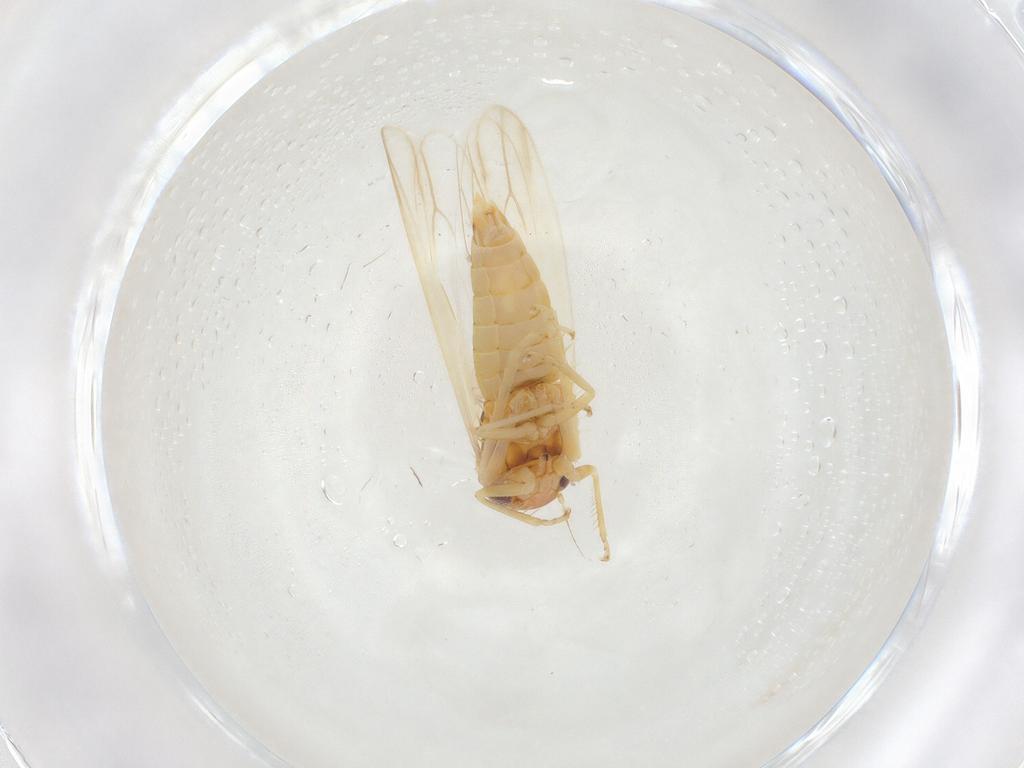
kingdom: Animalia
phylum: Arthropoda
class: Insecta
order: Hemiptera
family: Cicadellidae
